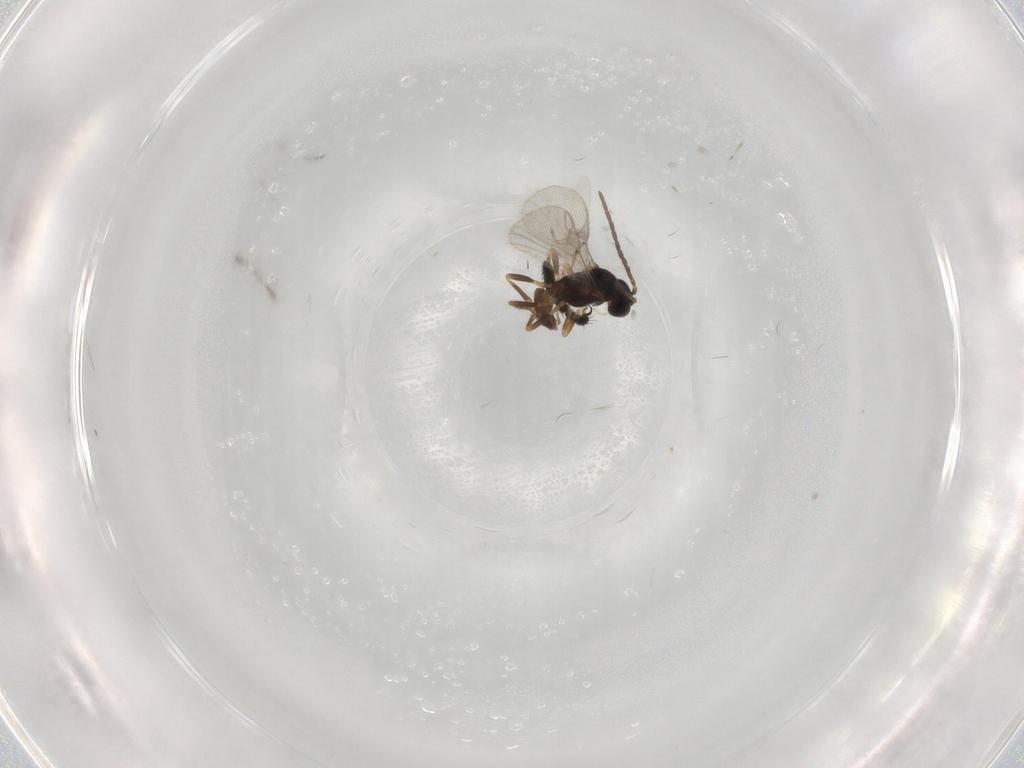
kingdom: Animalia
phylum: Arthropoda
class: Insecta
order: Hymenoptera
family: Braconidae
